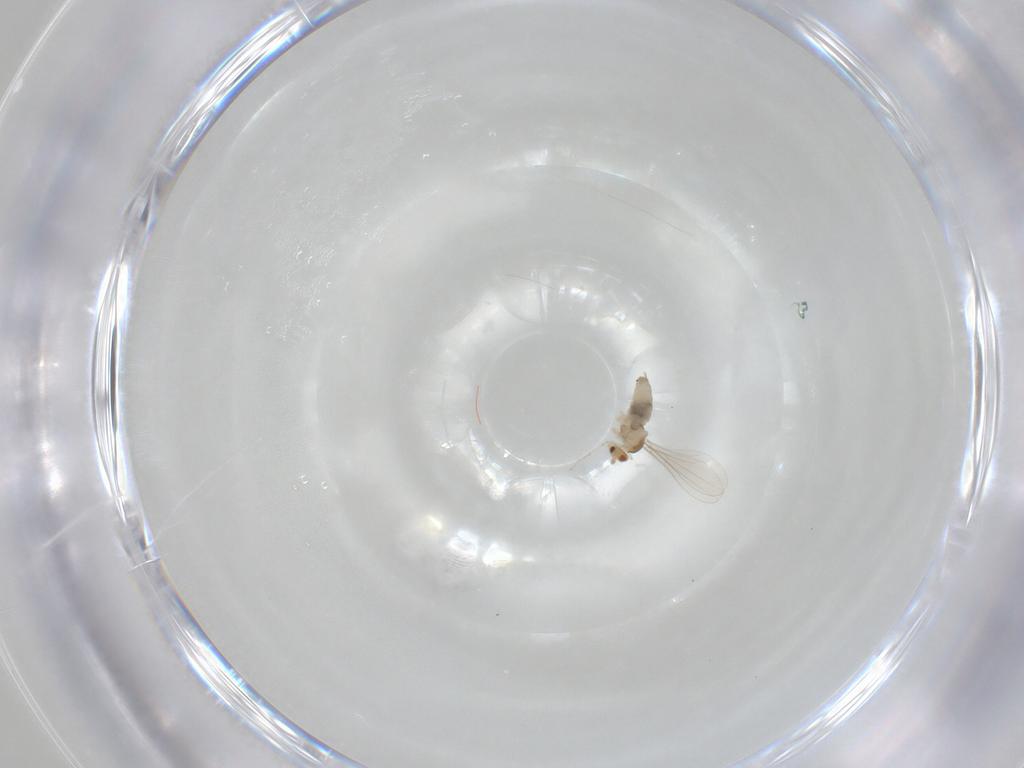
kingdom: Animalia
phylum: Arthropoda
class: Insecta
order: Diptera
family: Cecidomyiidae
